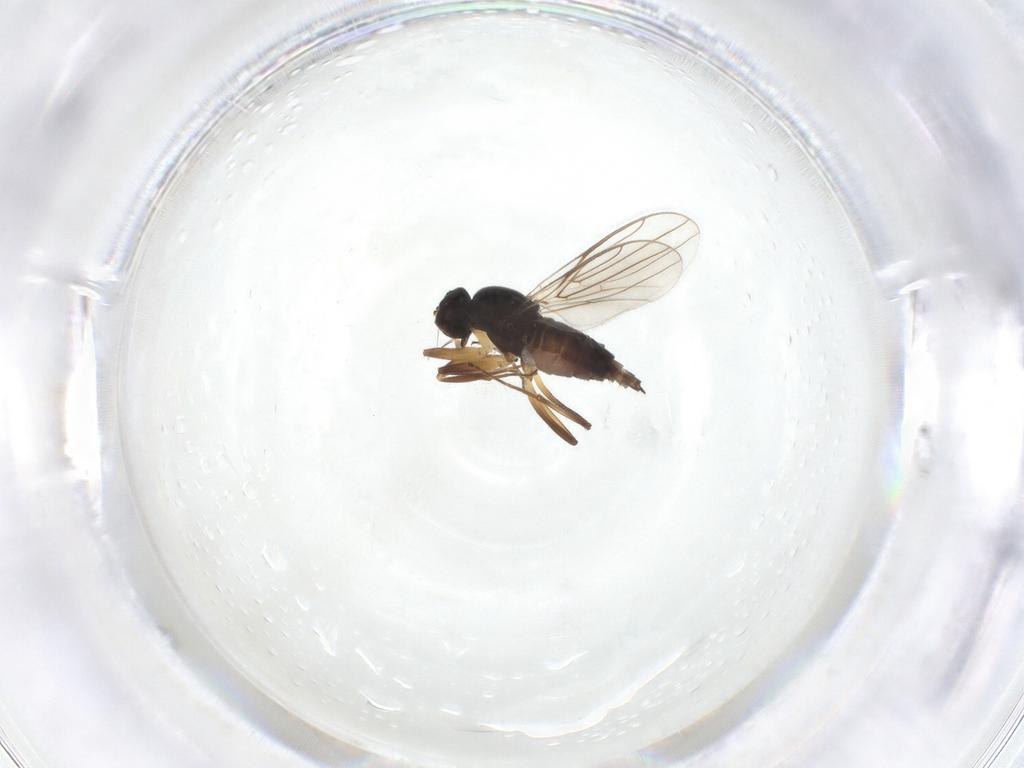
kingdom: Animalia
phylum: Arthropoda
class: Insecta
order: Diptera
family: Hybotidae
